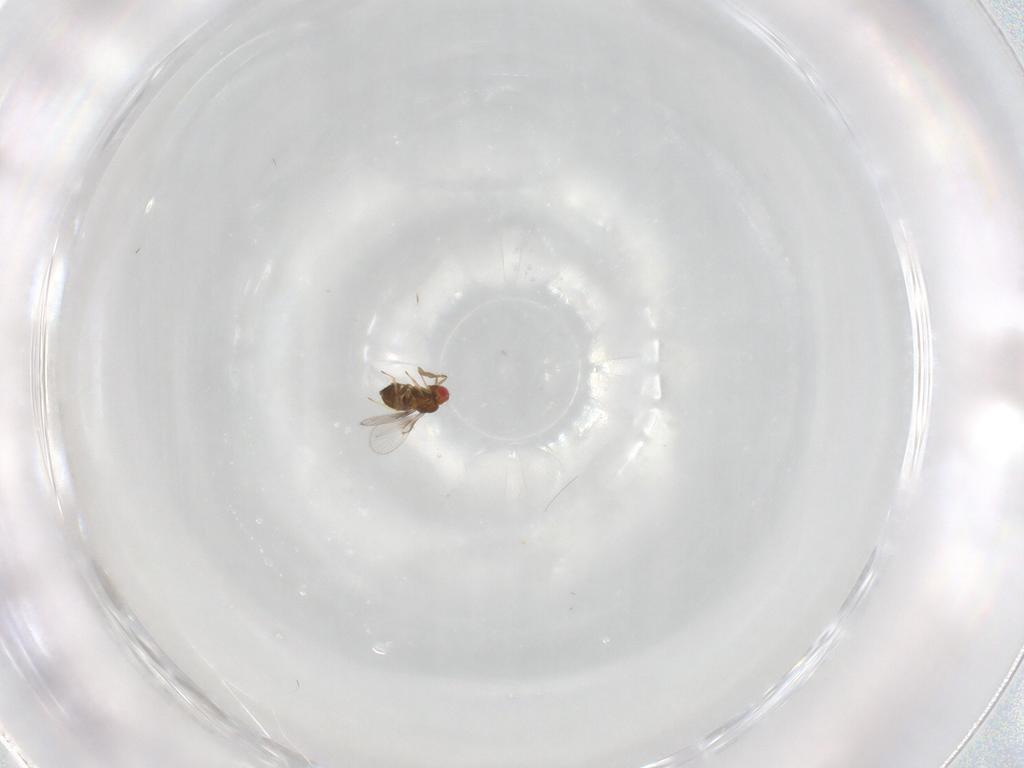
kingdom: Animalia
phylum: Arthropoda
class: Insecta
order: Hymenoptera
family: Trichogrammatidae
